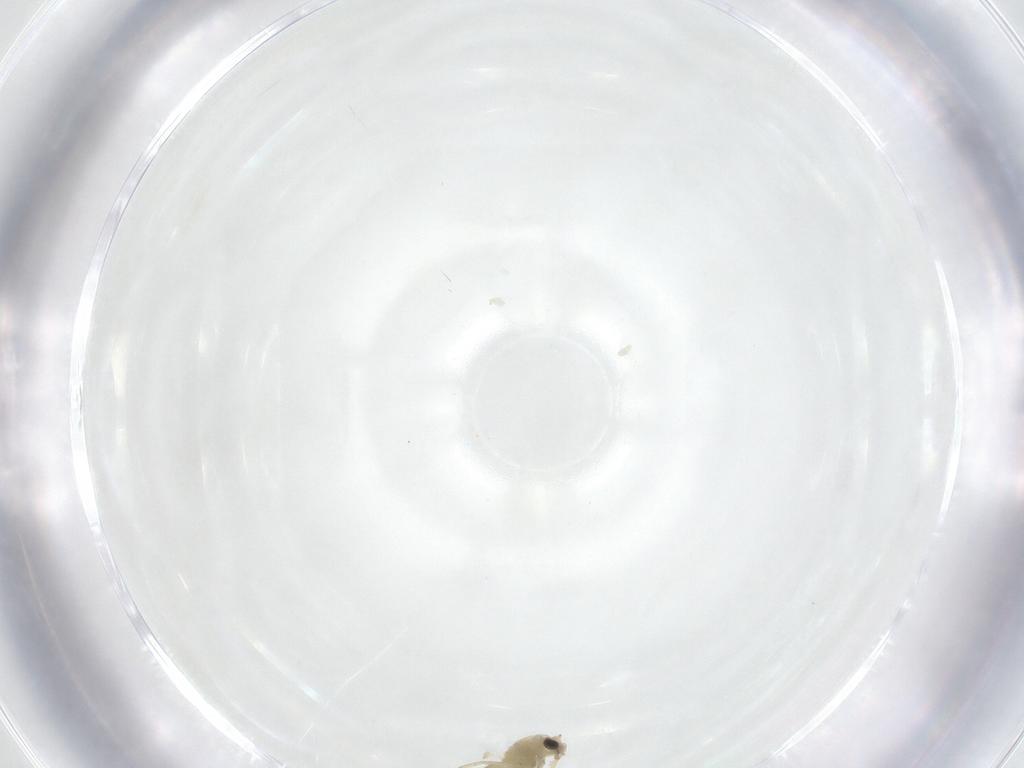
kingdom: Animalia
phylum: Arthropoda
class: Insecta
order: Diptera
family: Chironomidae
